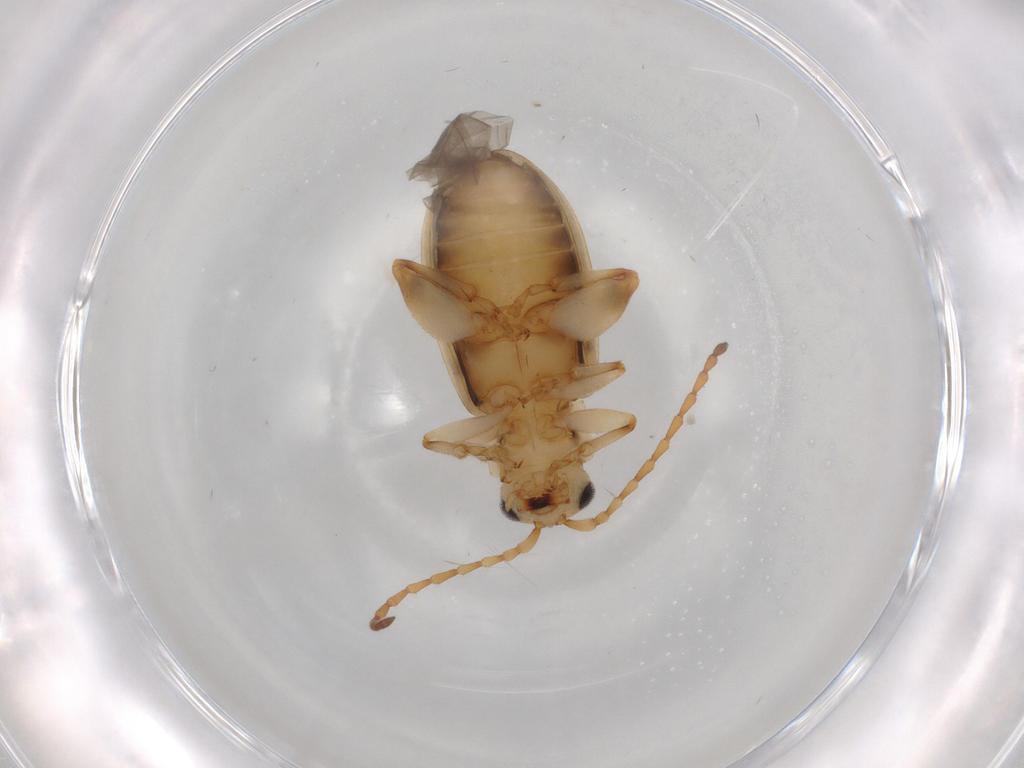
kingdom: Animalia
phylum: Arthropoda
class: Insecta
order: Coleoptera
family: Chrysomelidae
